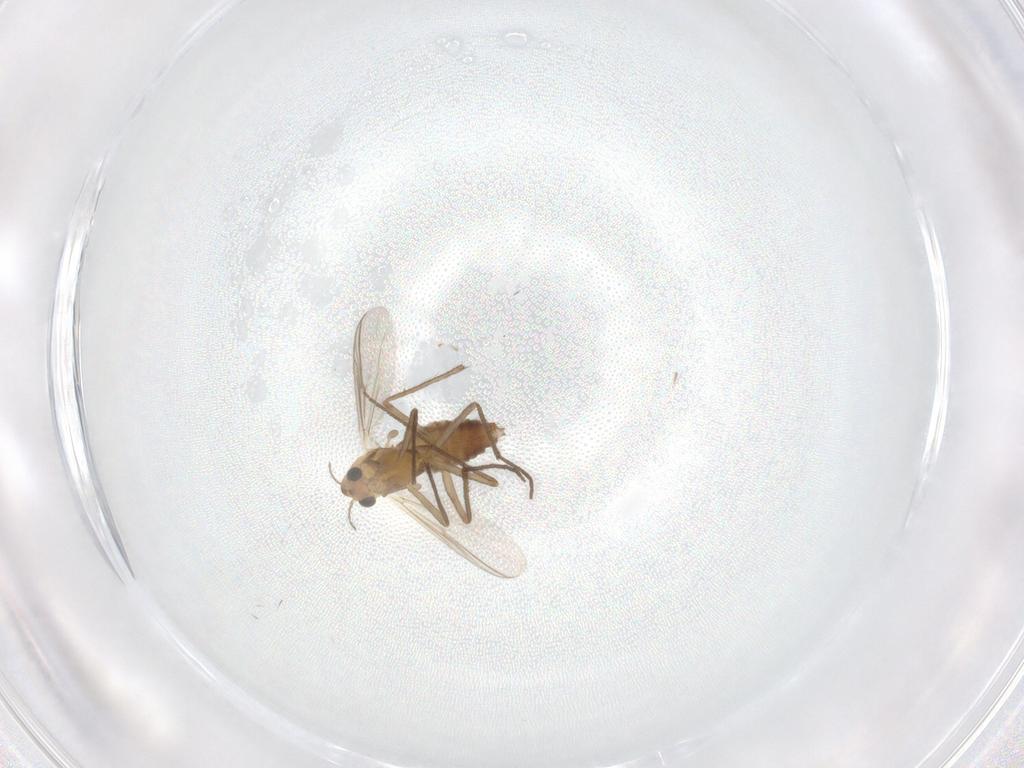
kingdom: Animalia
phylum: Arthropoda
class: Insecta
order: Diptera
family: Chironomidae
